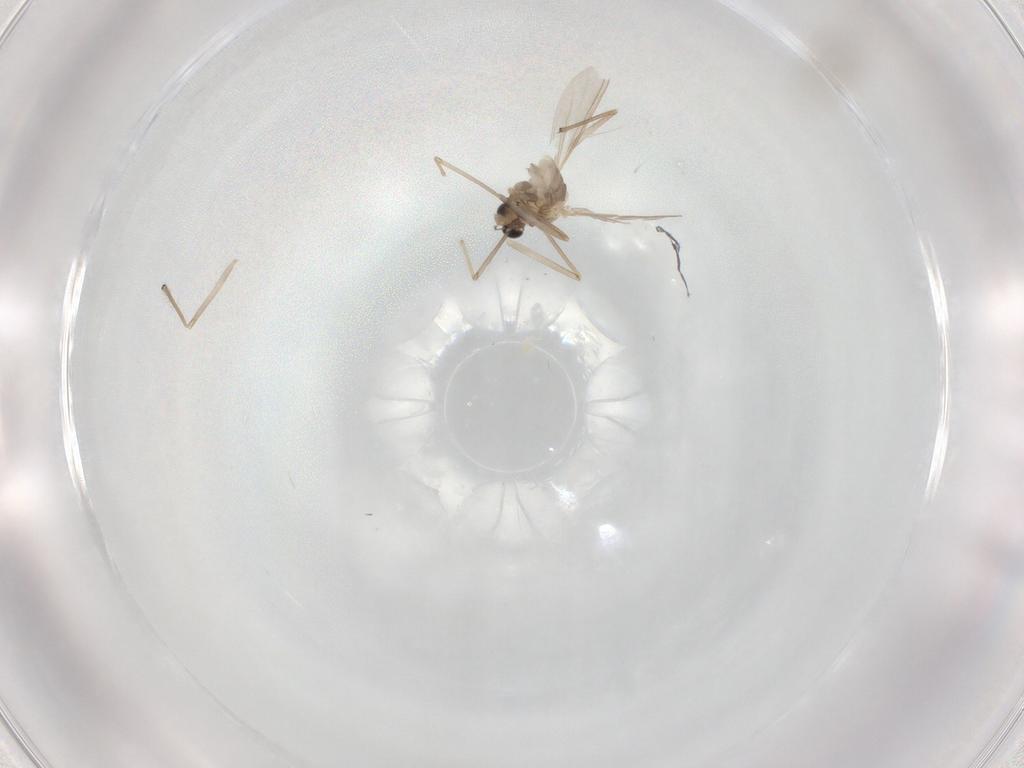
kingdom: Animalia
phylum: Arthropoda
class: Insecta
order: Diptera
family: Chironomidae
